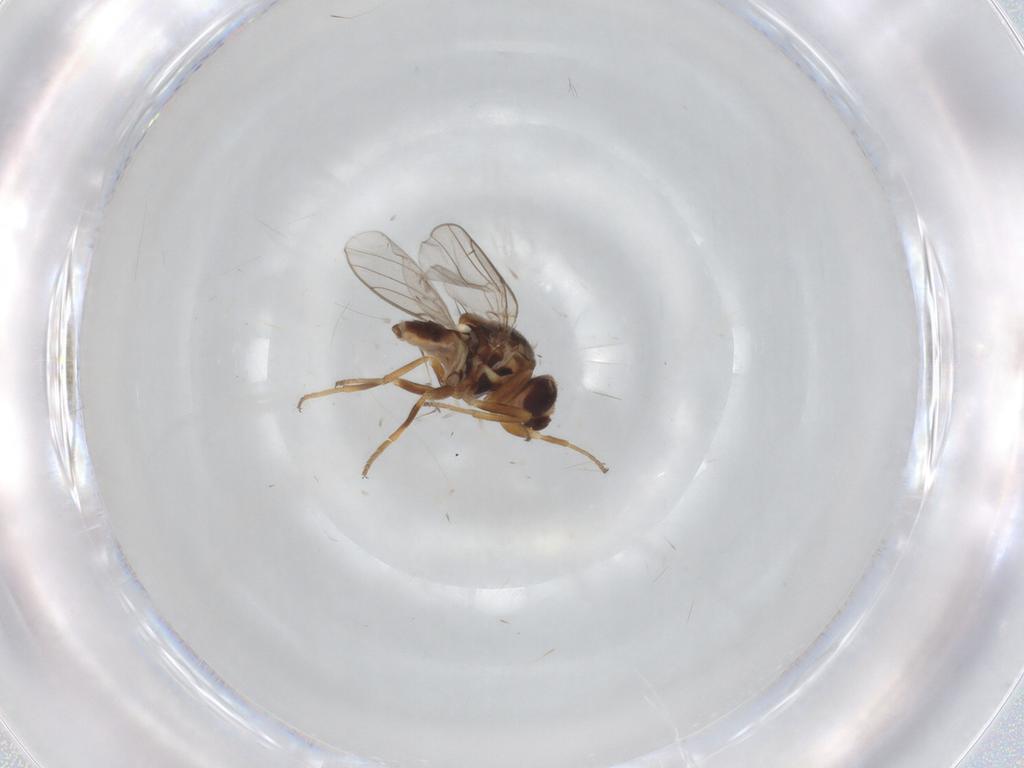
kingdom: Animalia
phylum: Arthropoda
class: Insecta
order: Diptera
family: Chloropidae
